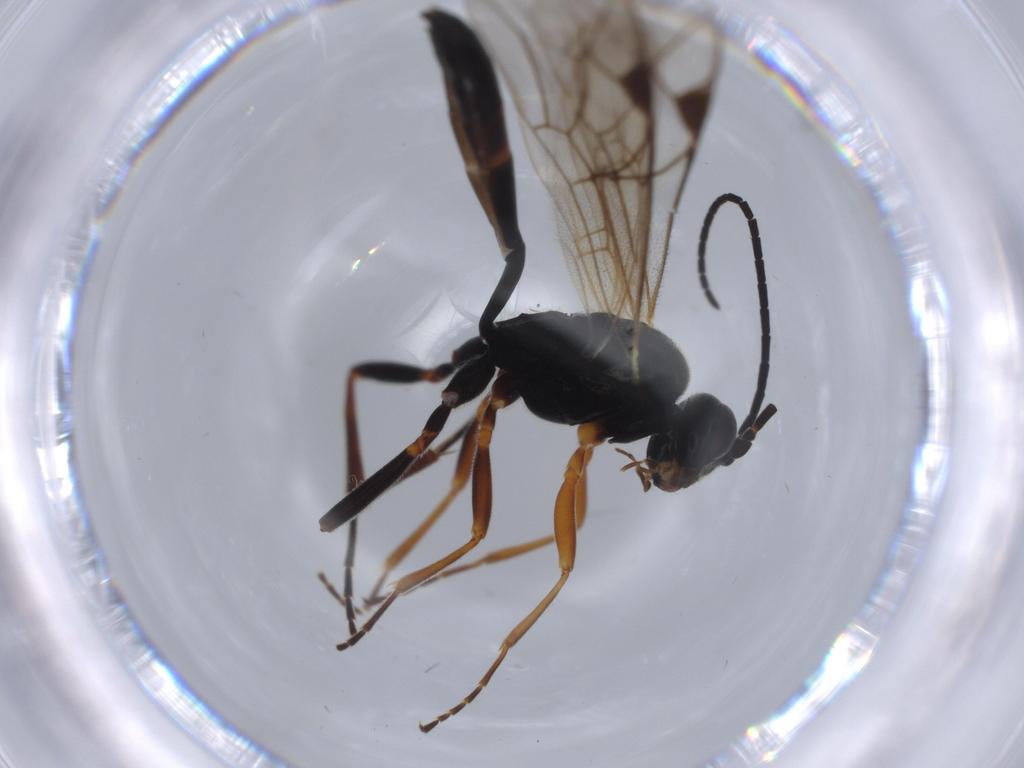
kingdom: Animalia
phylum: Arthropoda
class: Insecta
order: Hymenoptera
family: Ichneumonidae
